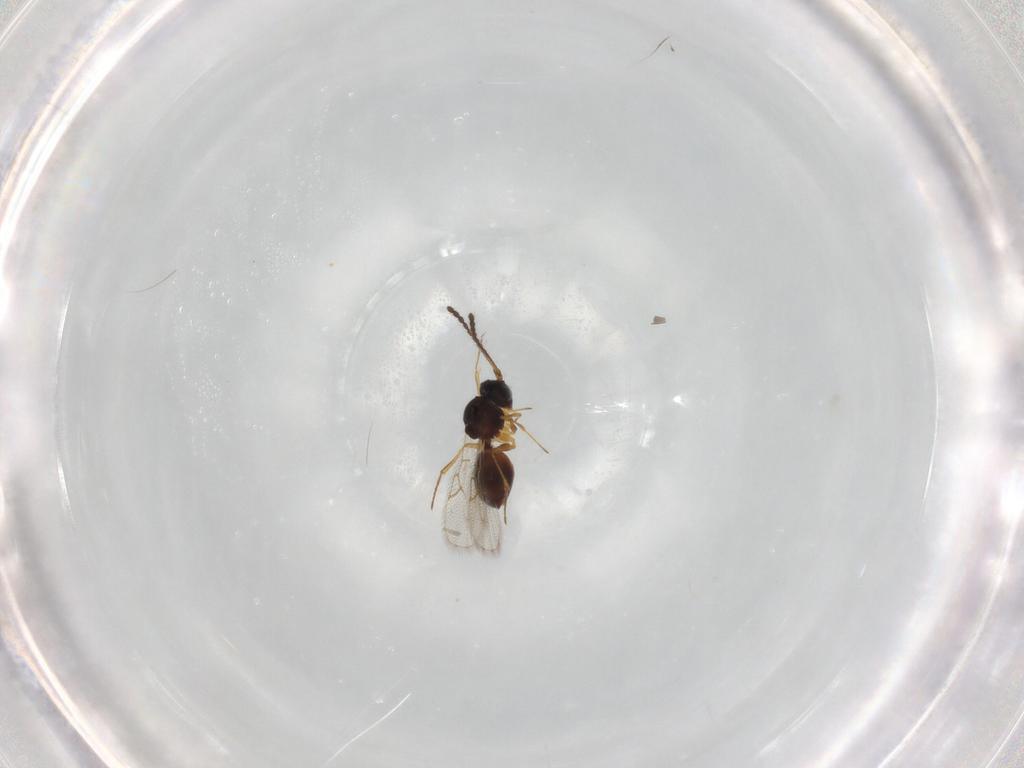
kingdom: Animalia
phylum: Arthropoda
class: Insecta
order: Hymenoptera
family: Figitidae
